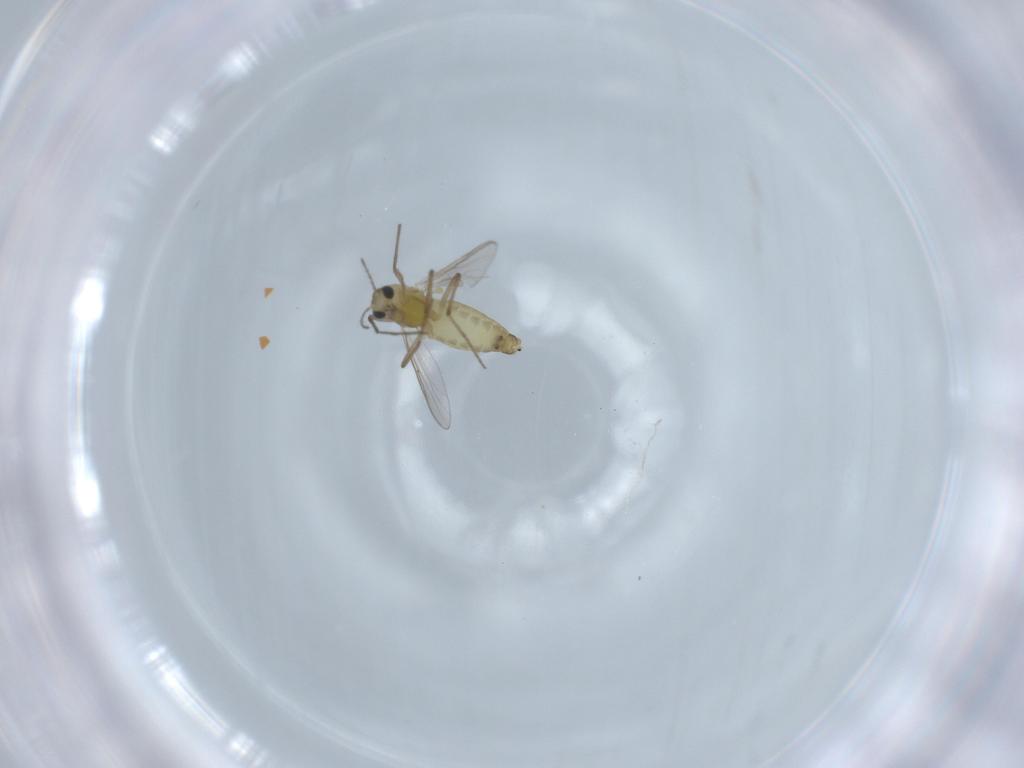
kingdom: Animalia
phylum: Arthropoda
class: Insecta
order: Diptera
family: Chironomidae
